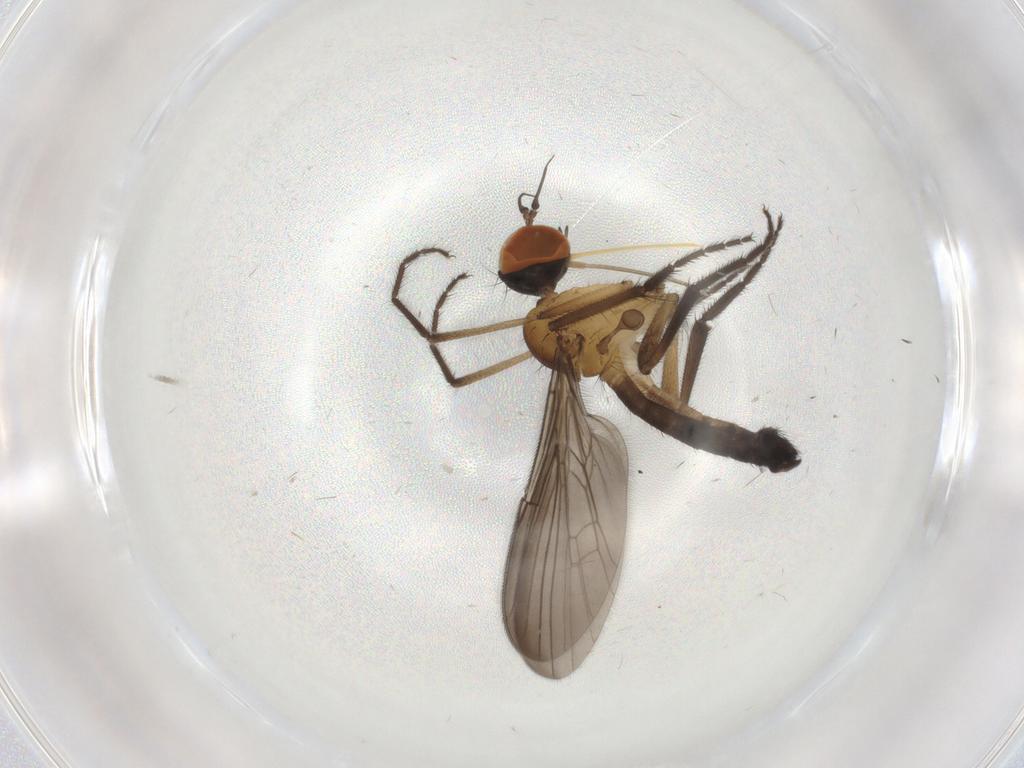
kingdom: Animalia
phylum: Arthropoda
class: Insecta
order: Diptera
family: Empididae
